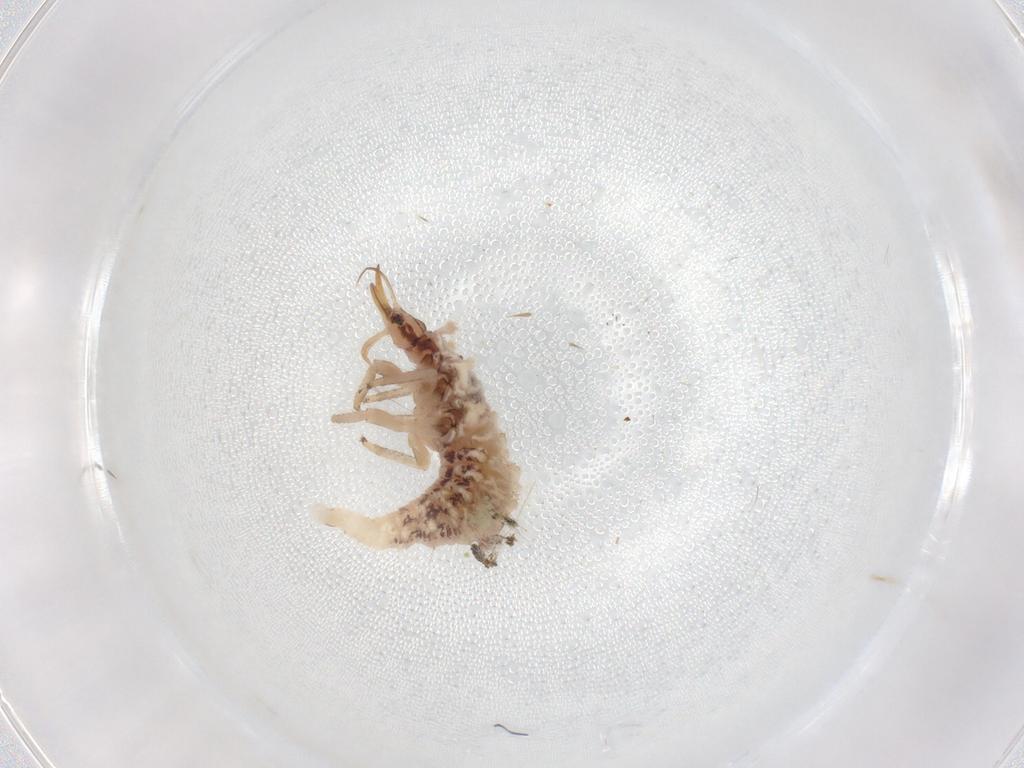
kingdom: Animalia
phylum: Arthropoda
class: Insecta
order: Neuroptera
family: Chrysopidae
